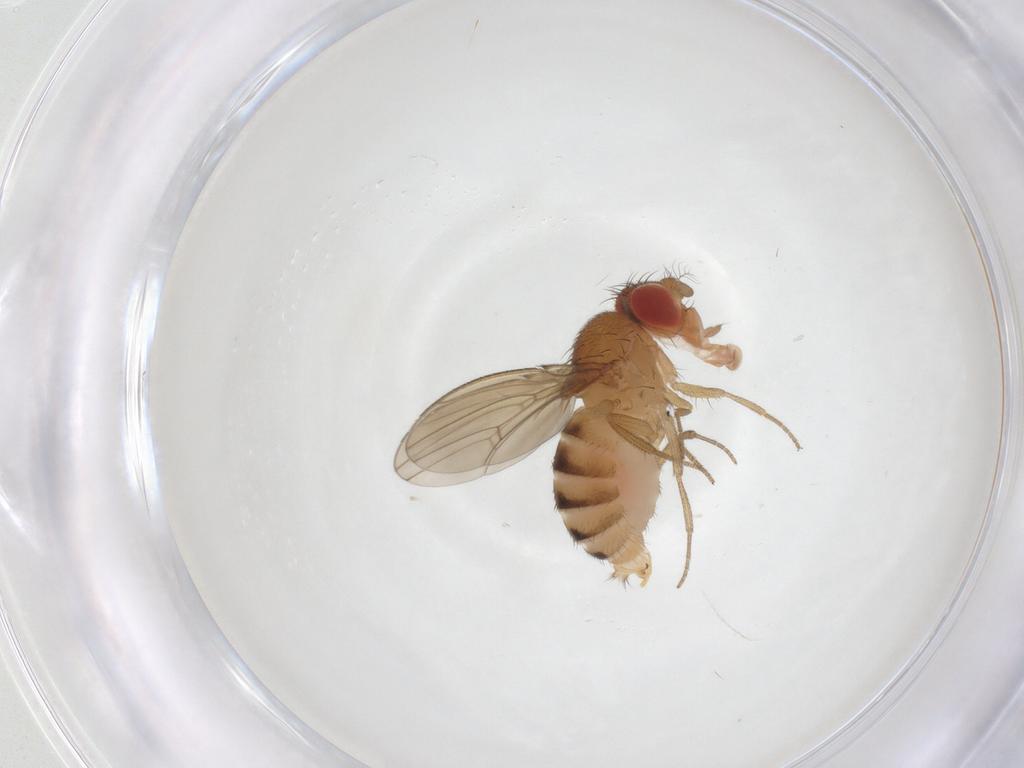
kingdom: Animalia
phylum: Arthropoda
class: Insecta
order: Diptera
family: Drosophilidae
